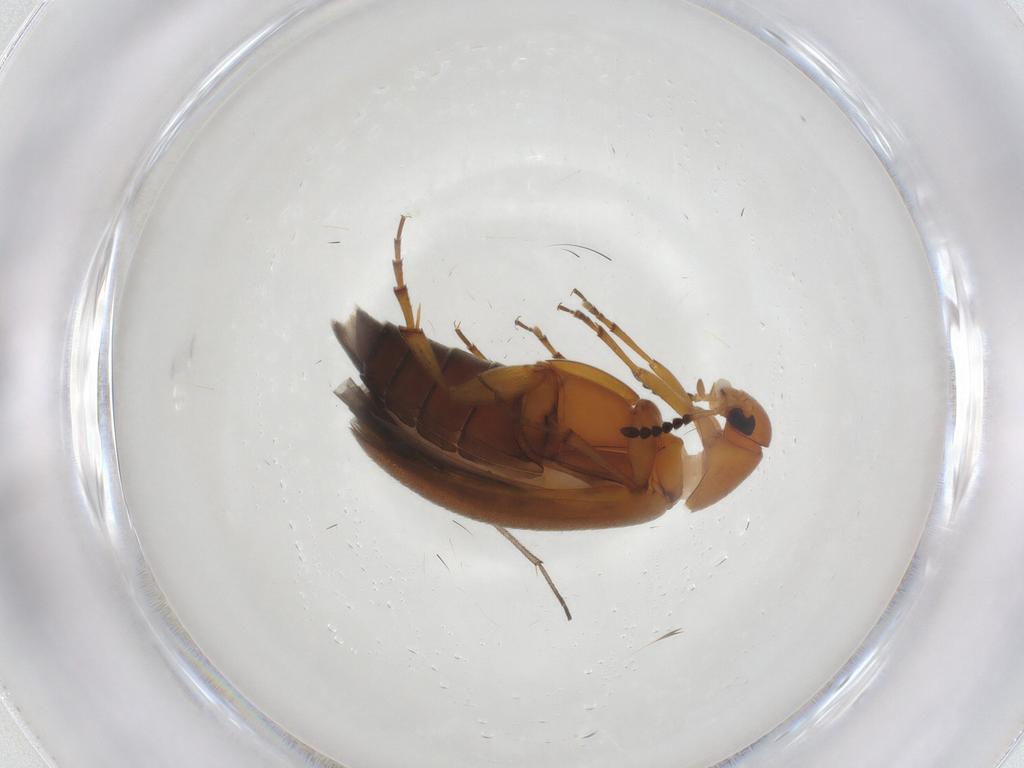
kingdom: Animalia
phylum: Arthropoda
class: Insecta
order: Coleoptera
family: Scraptiidae
